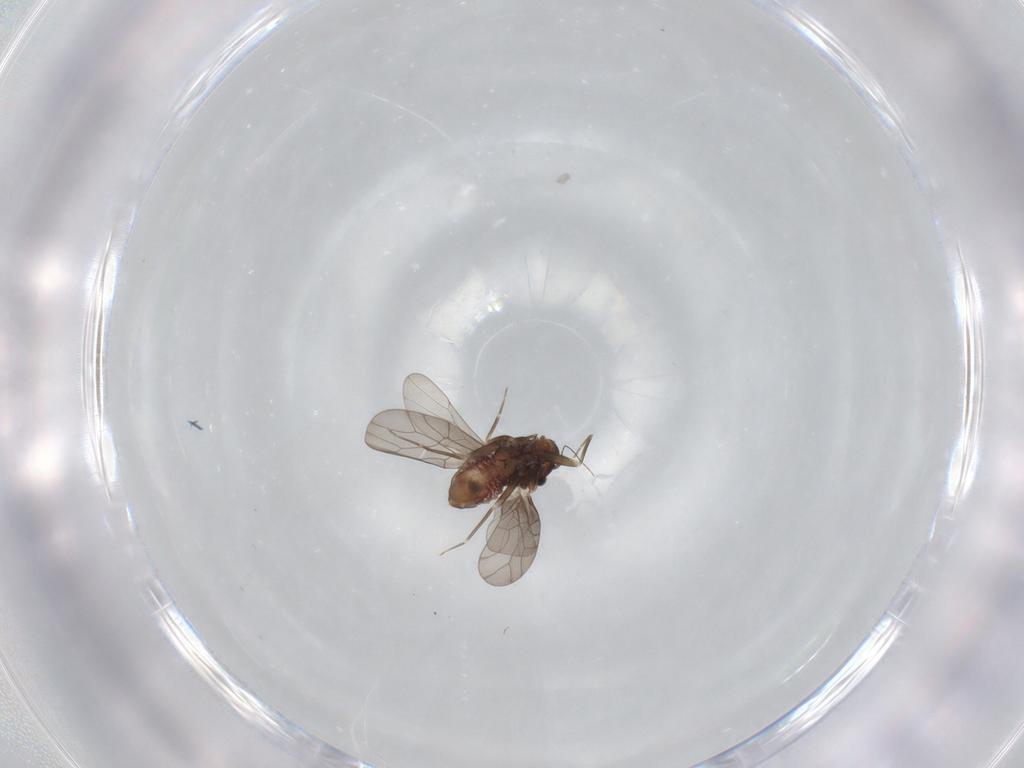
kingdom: Animalia
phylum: Arthropoda
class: Insecta
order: Psocodea
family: Lepidopsocidae
